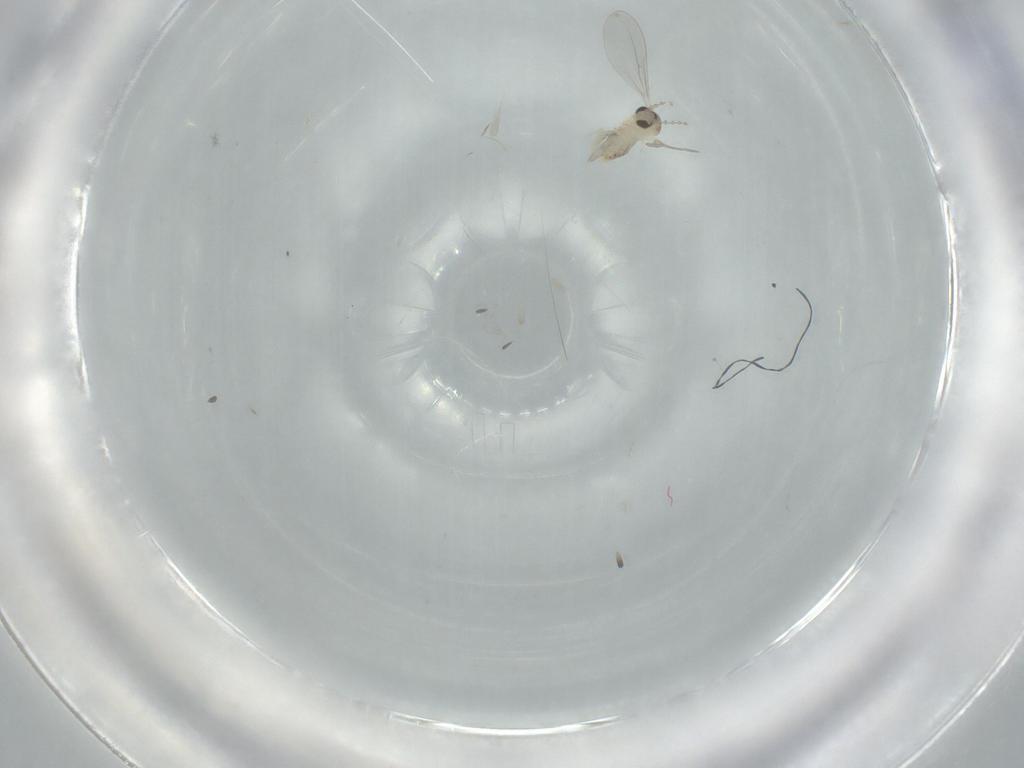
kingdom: Animalia
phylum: Arthropoda
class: Insecta
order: Diptera
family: Cecidomyiidae
